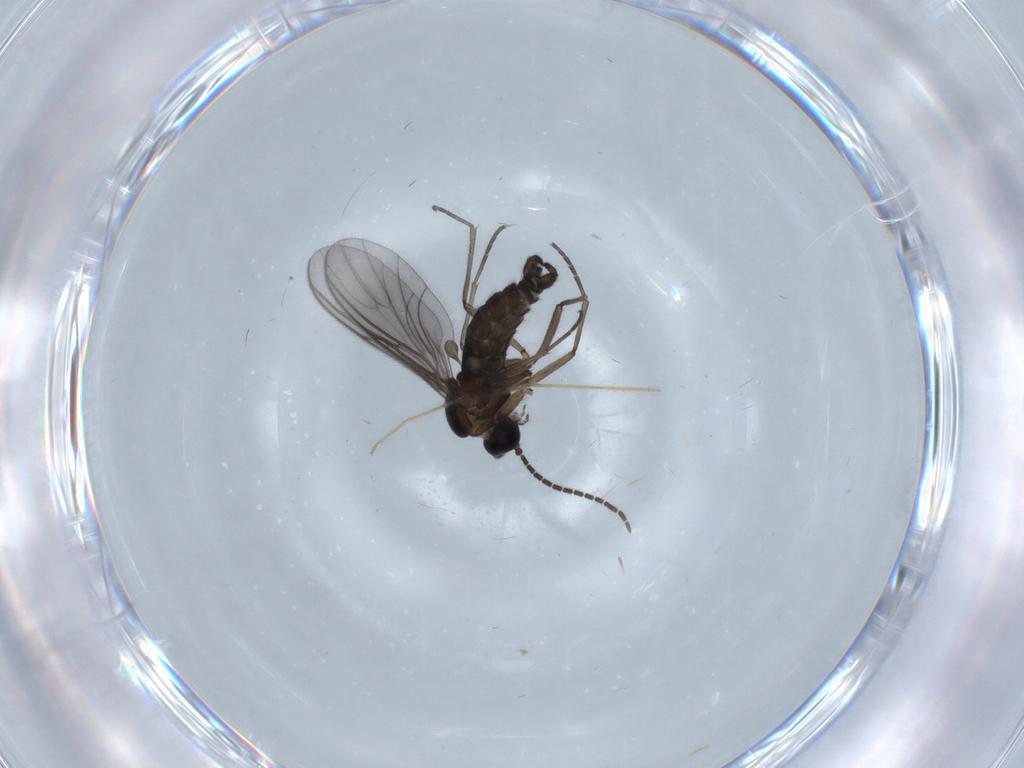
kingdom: Animalia
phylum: Arthropoda
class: Insecta
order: Diptera
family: Sciaridae
